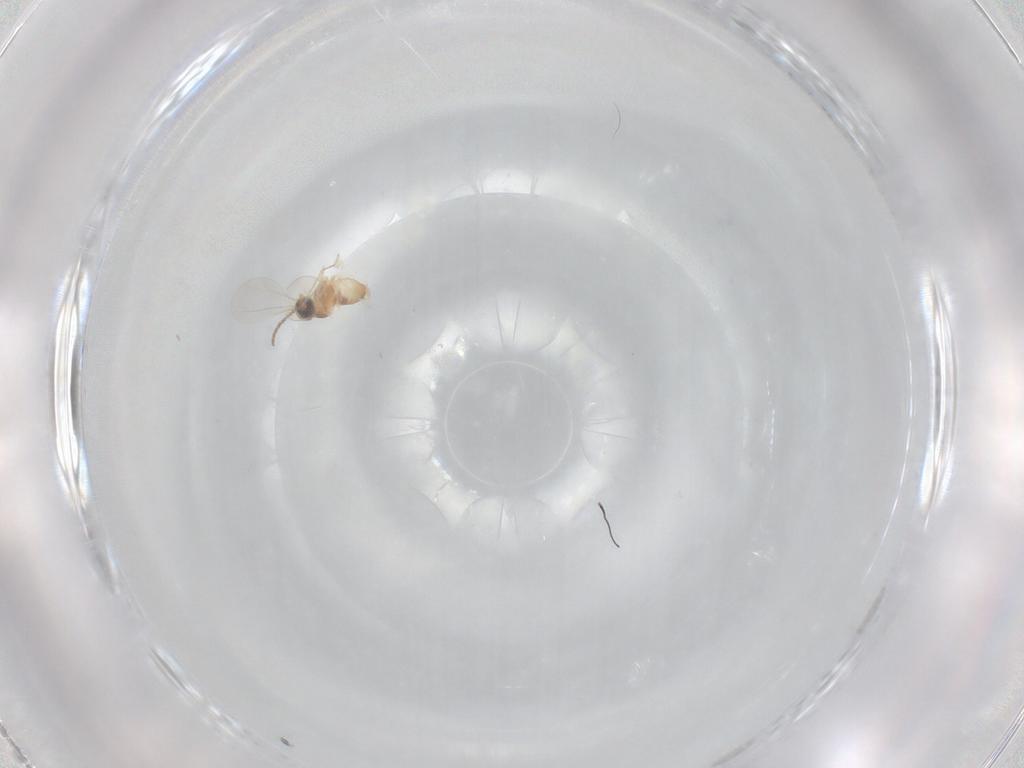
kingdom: Animalia
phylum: Arthropoda
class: Insecta
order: Diptera
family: Cecidomyiidae
